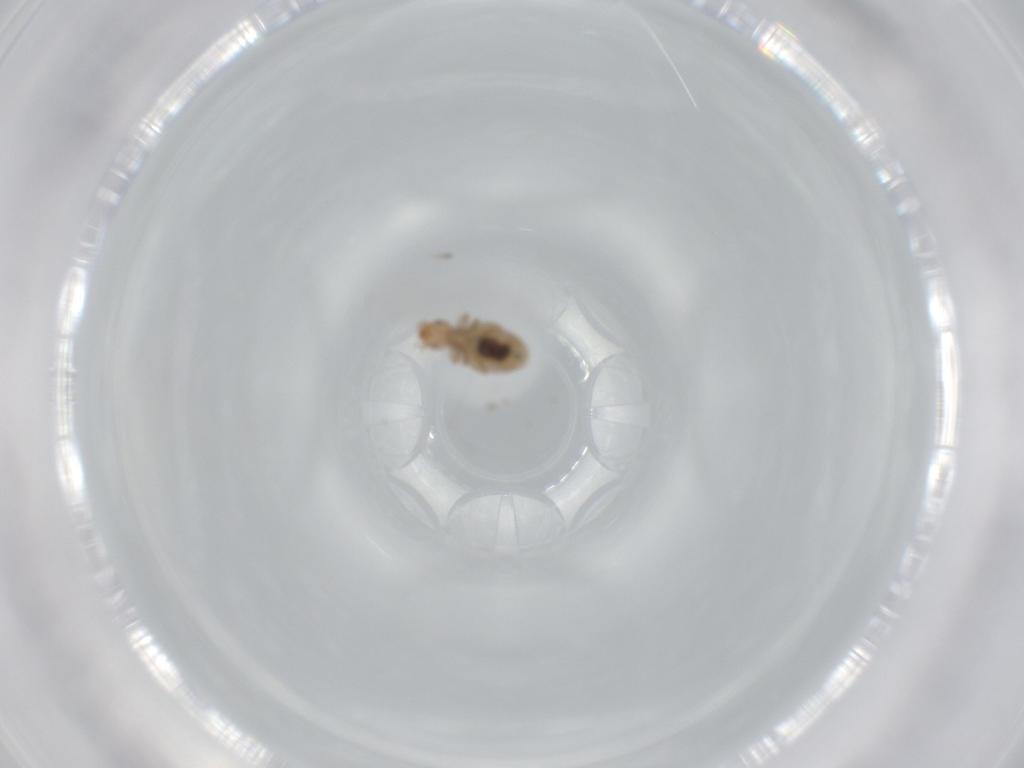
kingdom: Animalia
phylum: Arthropoda
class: Insecta
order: Psocodea
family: Liposcelididae
